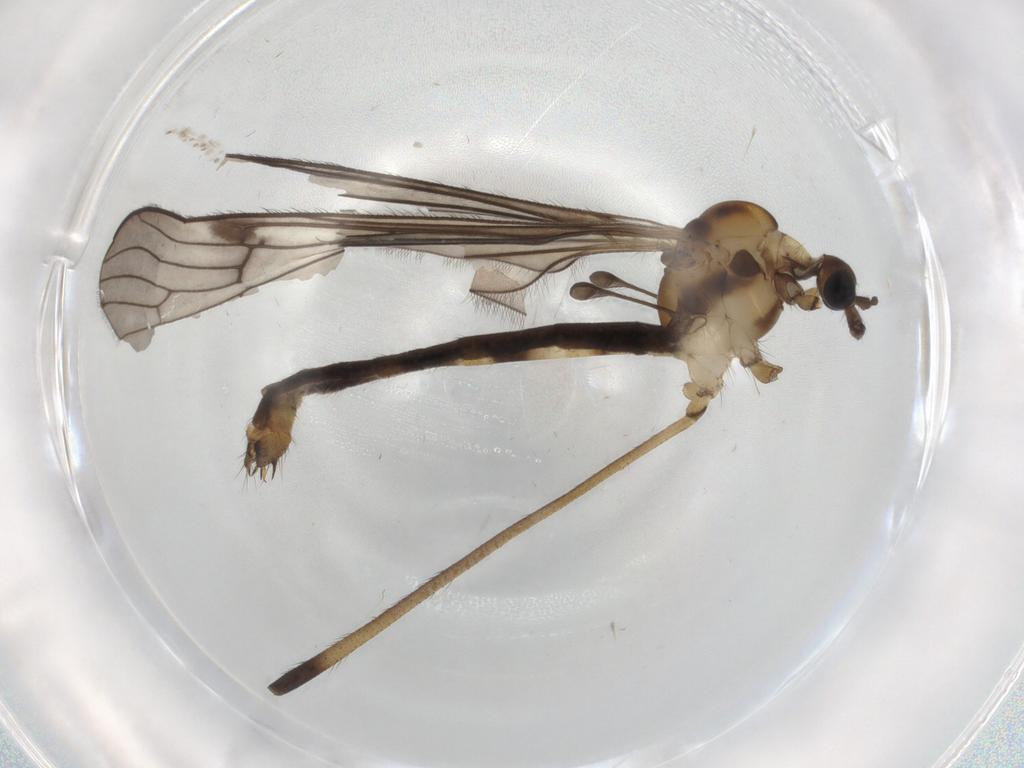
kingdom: Animalia
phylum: Arthropoda
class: Insecta
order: Diptera
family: Limoniidae
